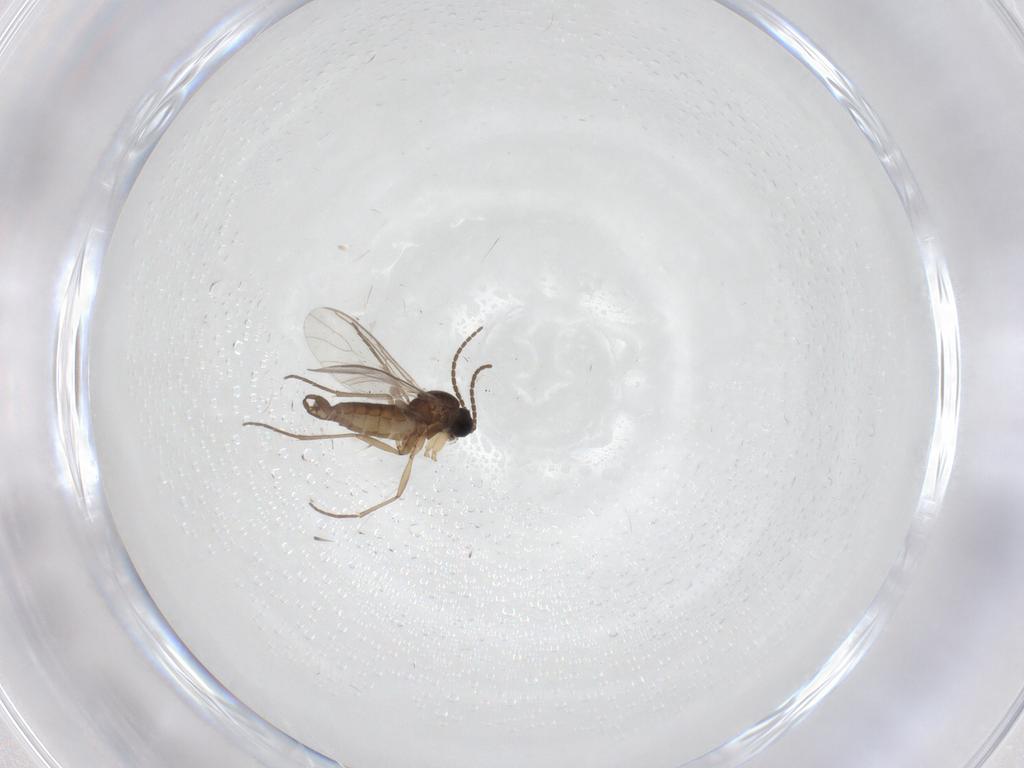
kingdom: Animalia
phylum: Arthropoda
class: Insecta
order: Diptera
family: Sciaridae
